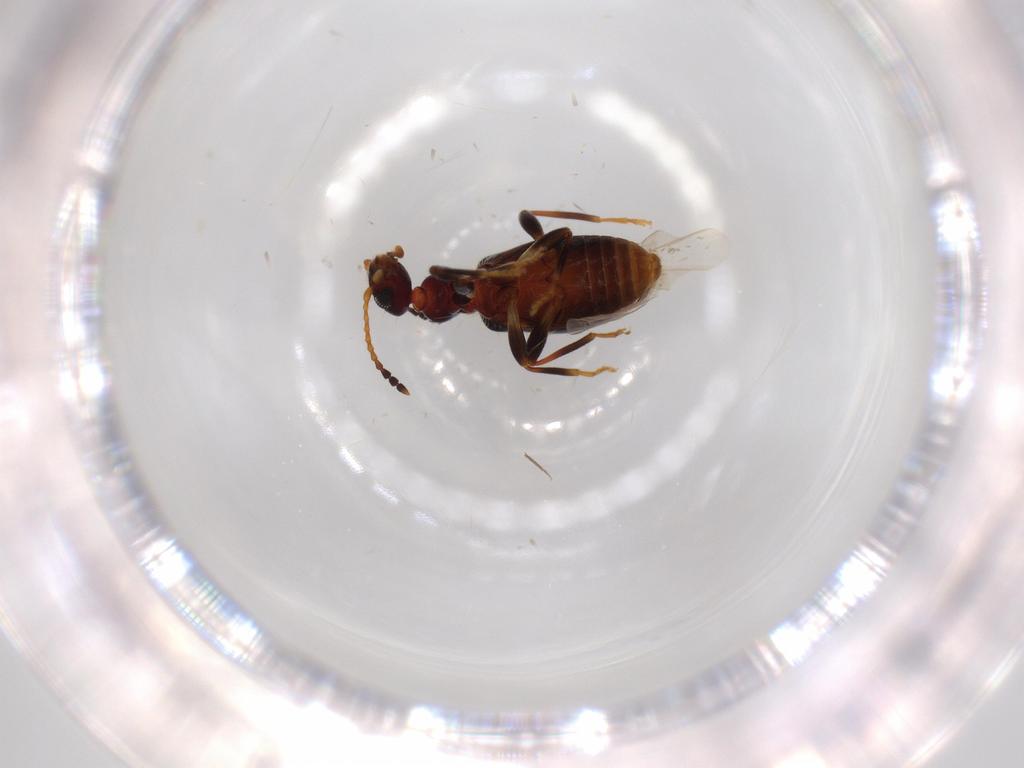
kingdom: Animalia
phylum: Arthropoda
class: Insecta
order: Coleoptera
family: Anthicidae
